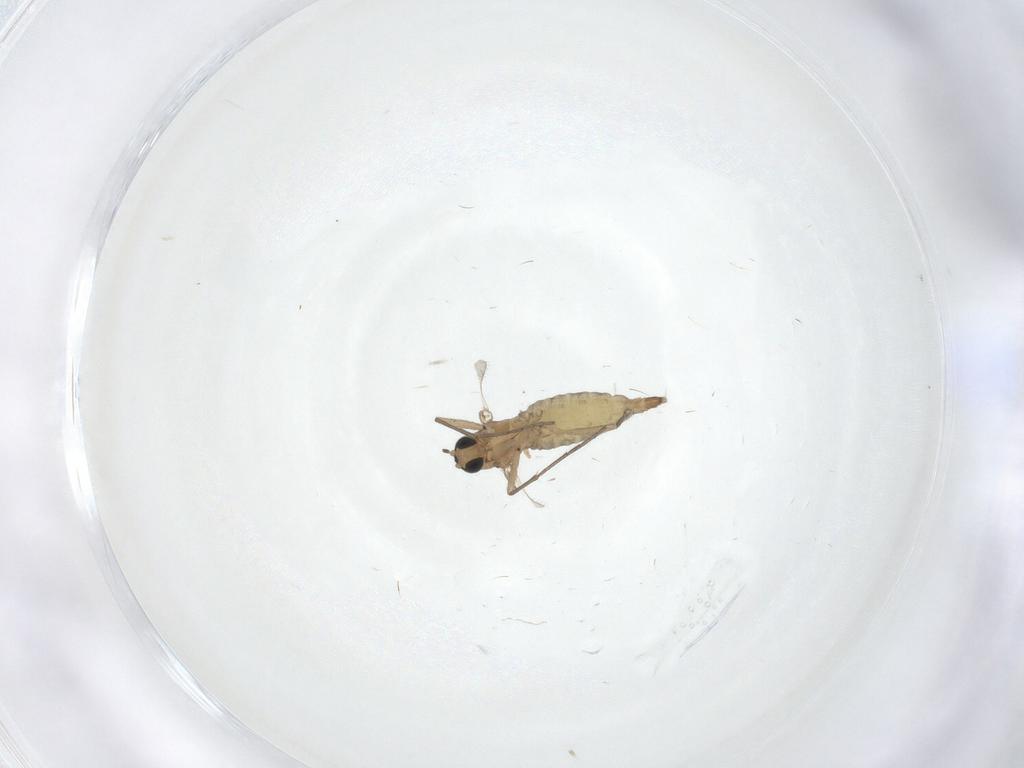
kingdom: Animalia
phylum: Arthropoda
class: Insecta
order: Diptera
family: Sciaridae
